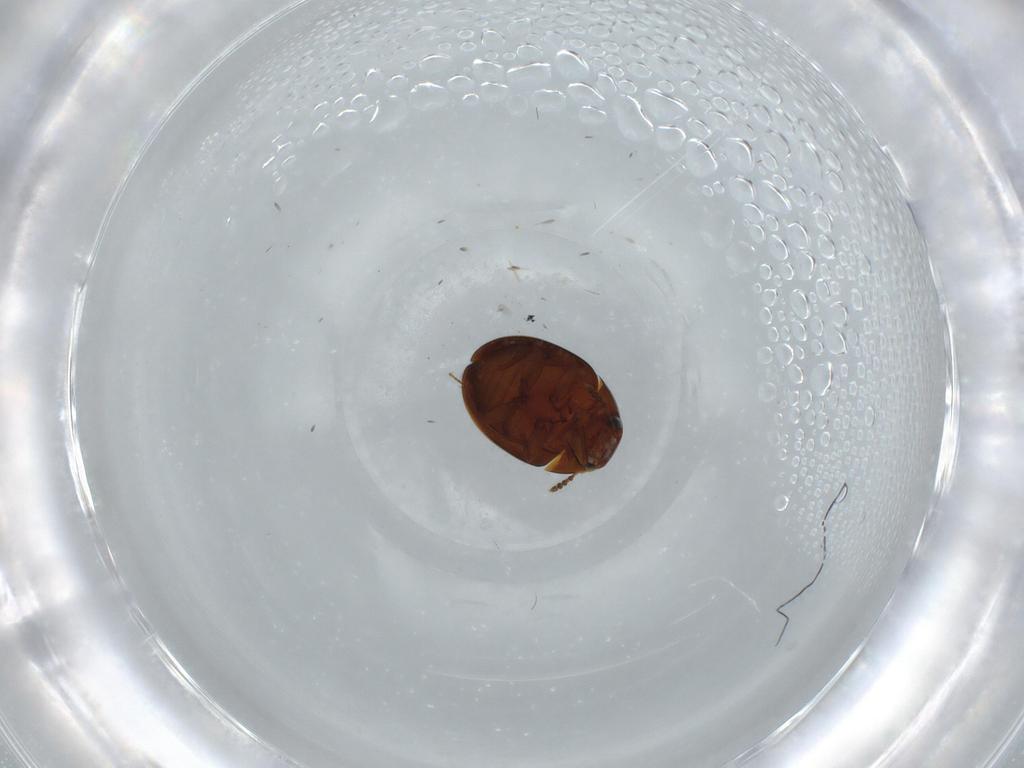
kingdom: Animalia
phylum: Arthropoda
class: Insecta
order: Coleoptera
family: Leiodidae
